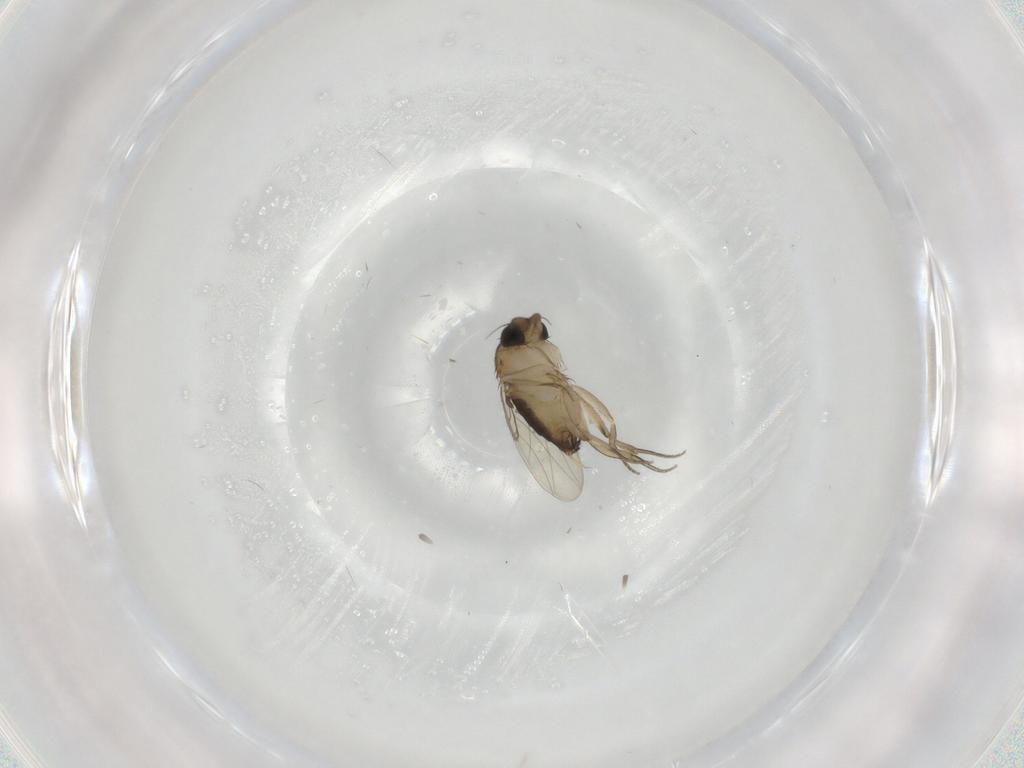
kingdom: Animalia
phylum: Arthropoda
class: Insecta
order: Diptera
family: Phoridae
